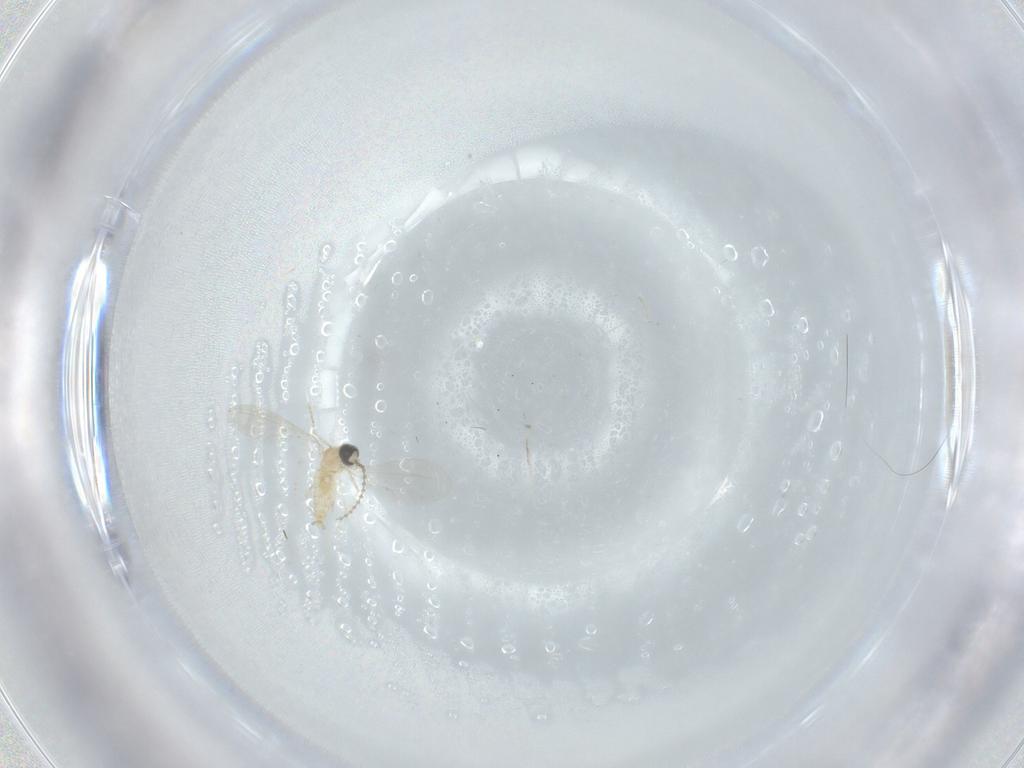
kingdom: Animalia
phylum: Arthropoda
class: Insecta
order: Diptera
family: Cecidomyiidae
